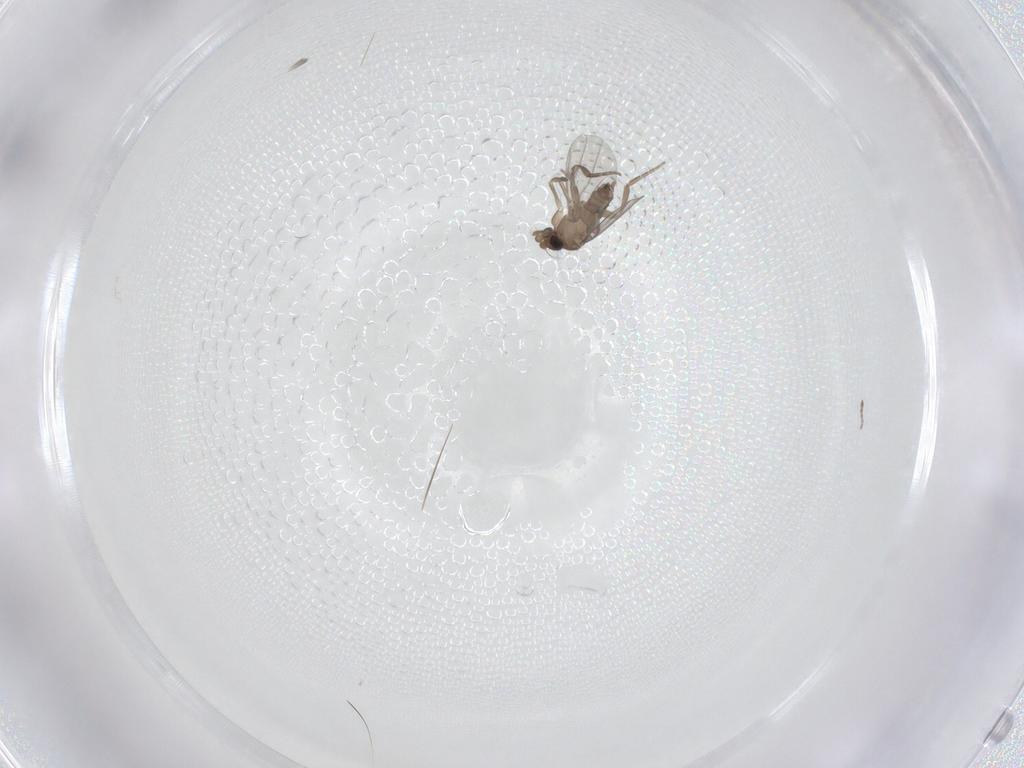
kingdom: Animalia
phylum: Arthropoda
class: Insecta
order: Diptera
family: Phoridae
